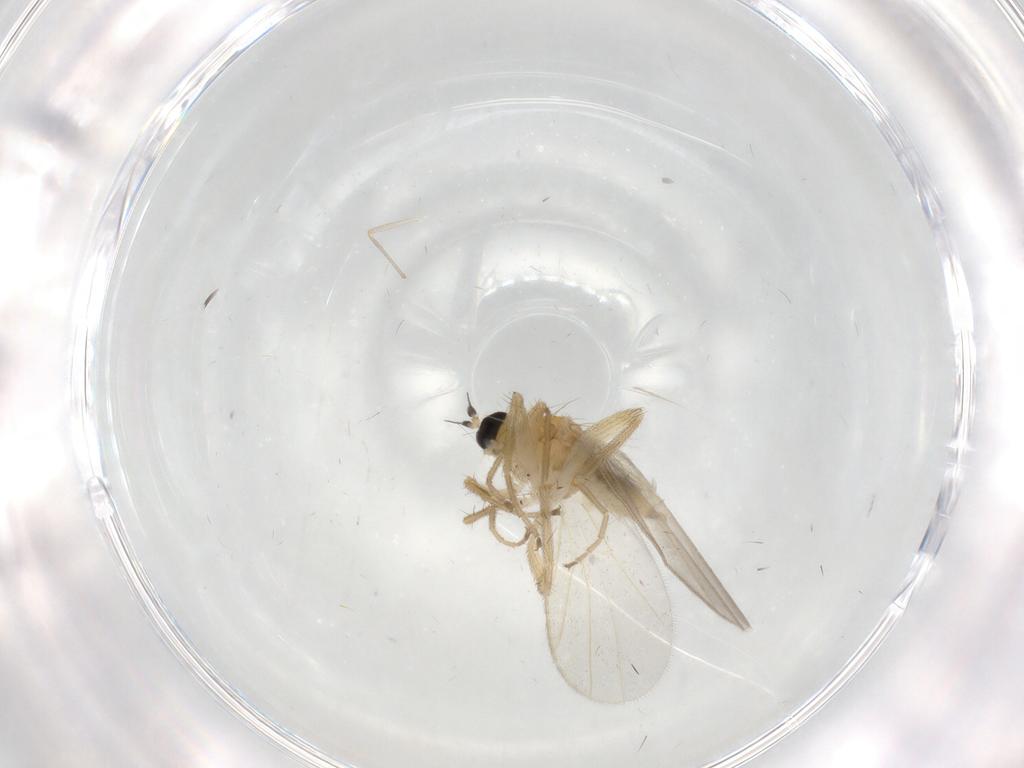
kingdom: Animalia
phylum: Arthropoda
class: Insecta
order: Diptera
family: Hybotidae
